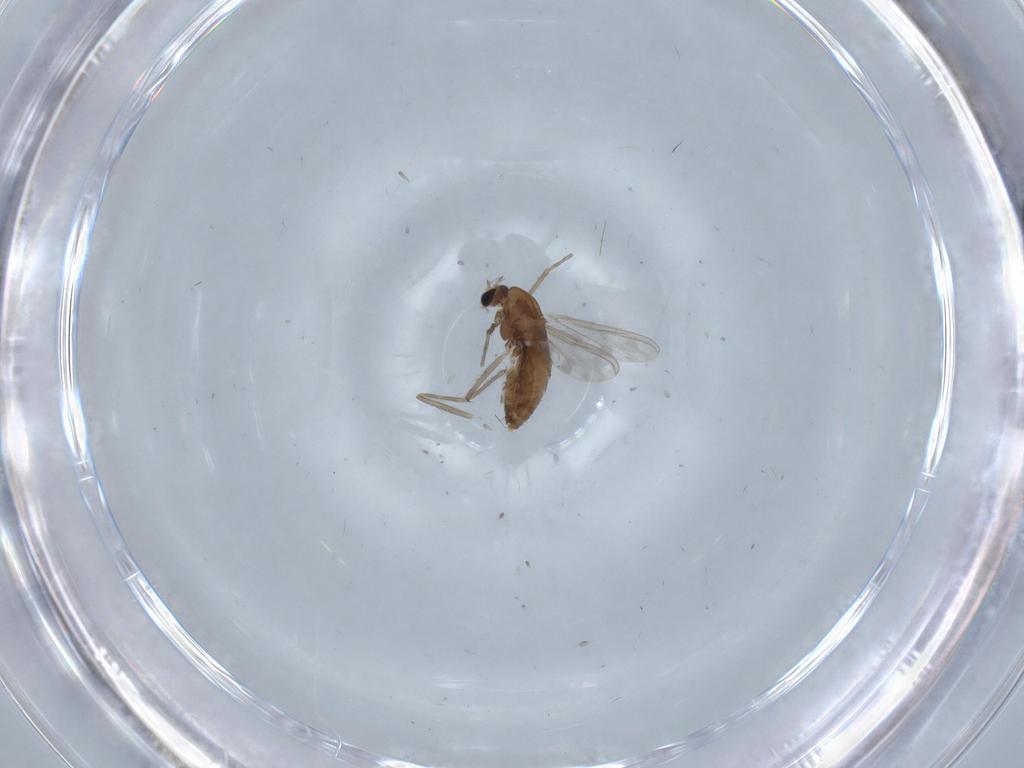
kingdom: Animalia
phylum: Arthropoda
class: Insecta
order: Diptera
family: Chironomidae
